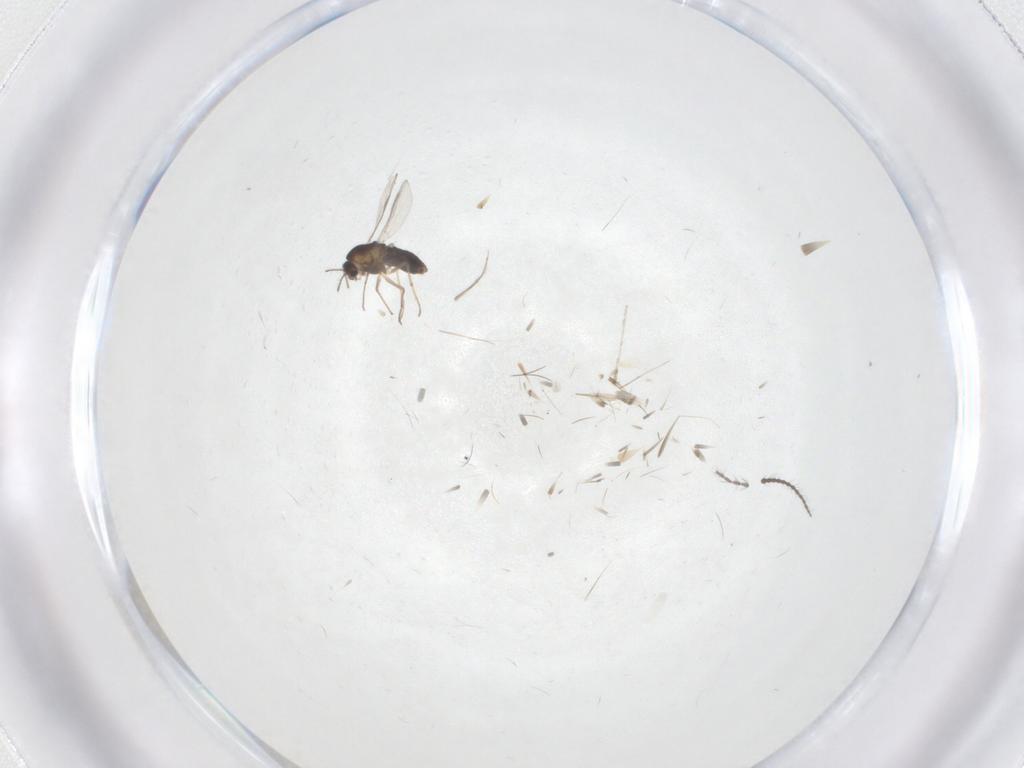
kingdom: Animalia
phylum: Arthropoda
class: Insecta
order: Diptera
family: Chironomidae
